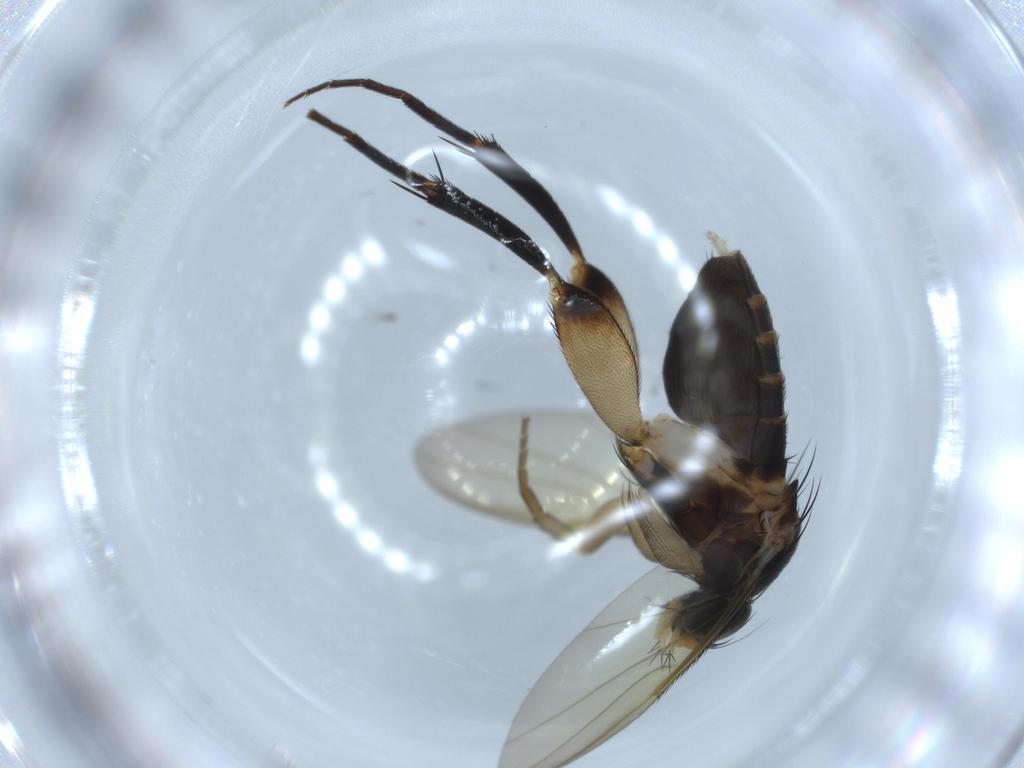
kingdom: Animalia
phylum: Arthropoda
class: Insecta
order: Diptera
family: Phoridae
